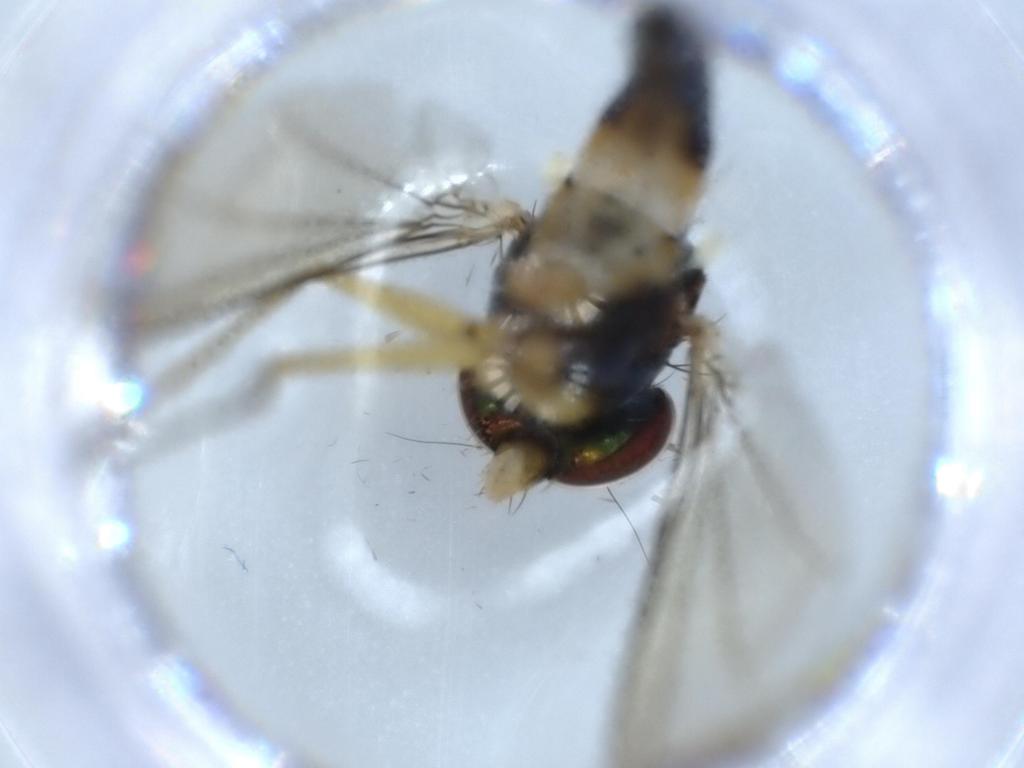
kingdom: Animalia
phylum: Arthropoda
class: Insecta
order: Diptera
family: Dolichopodidae
